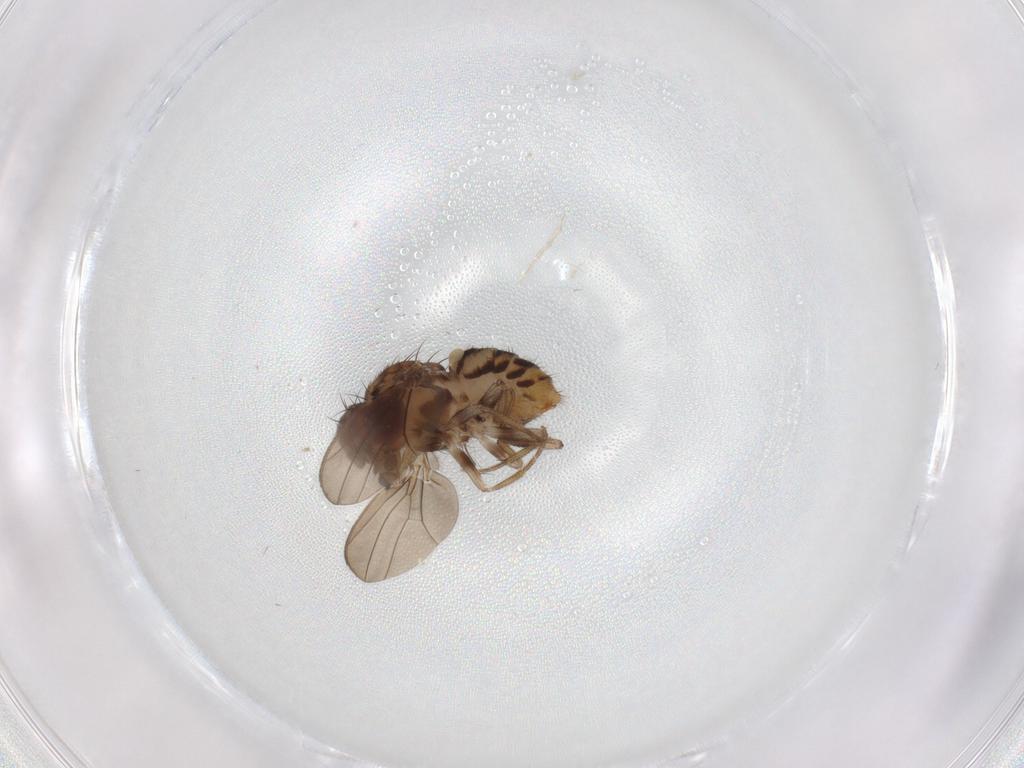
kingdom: Animalia
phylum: Arthropoda
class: Insecta
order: Diptera
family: Drosophilidae
